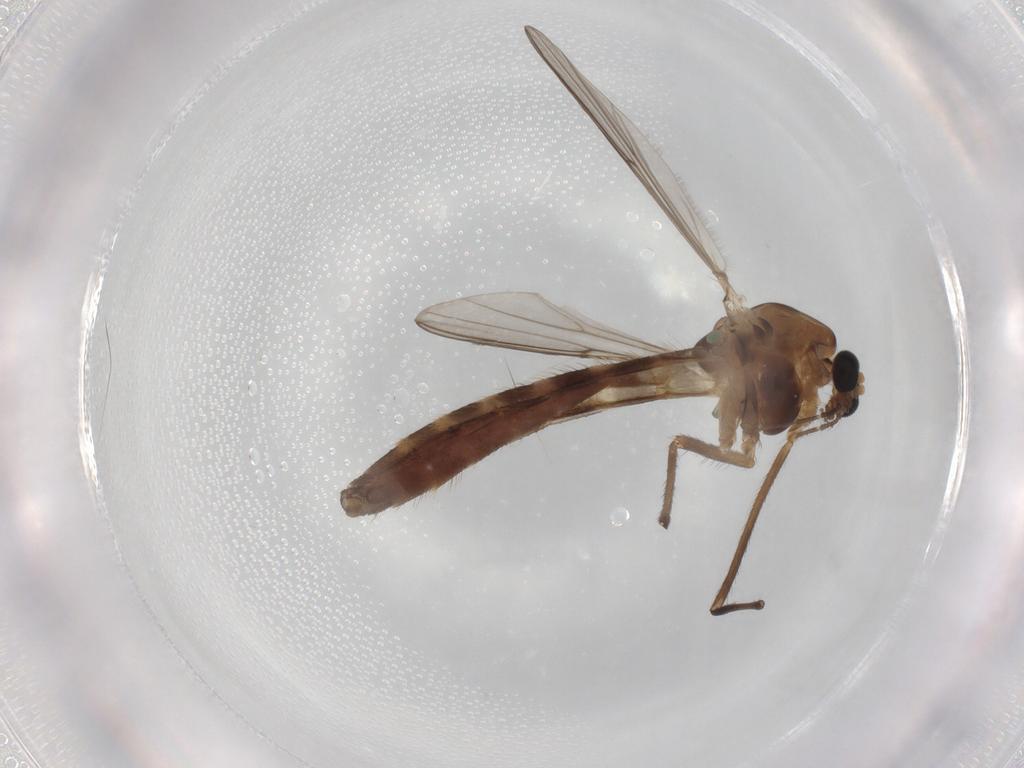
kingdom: Animalia
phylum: Arthropoda
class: Insecta
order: Diptera
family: Chironomidae
